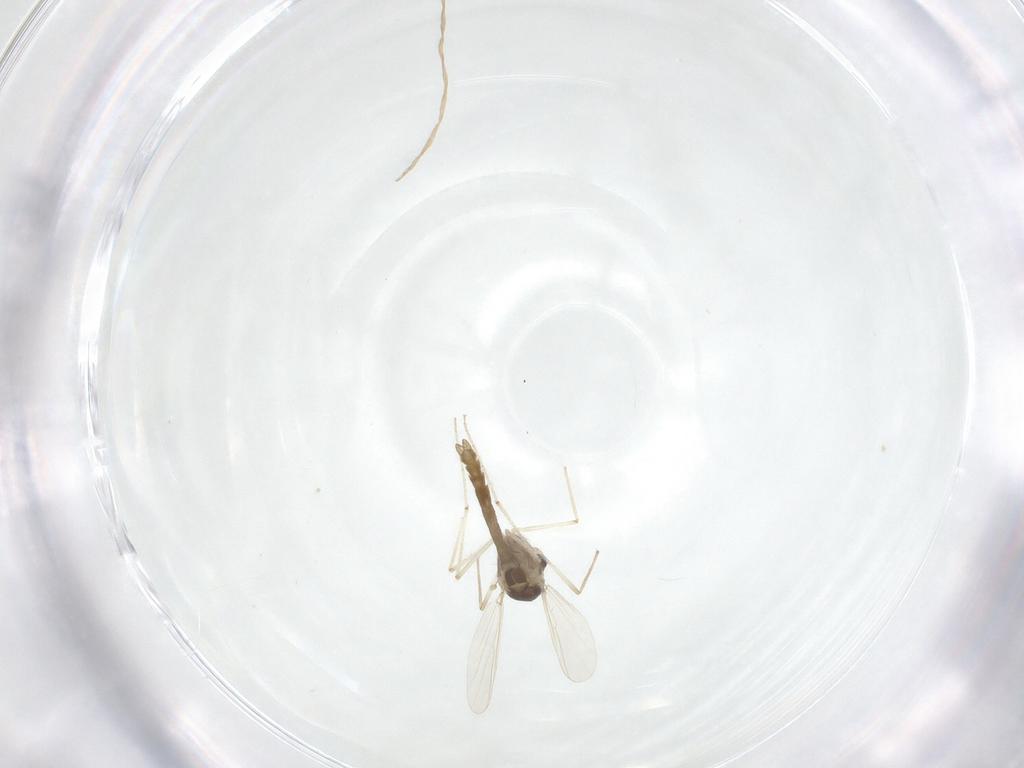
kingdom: Animalia
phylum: Arthropoda
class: Insecta
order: Diptera
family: Chironomidae
